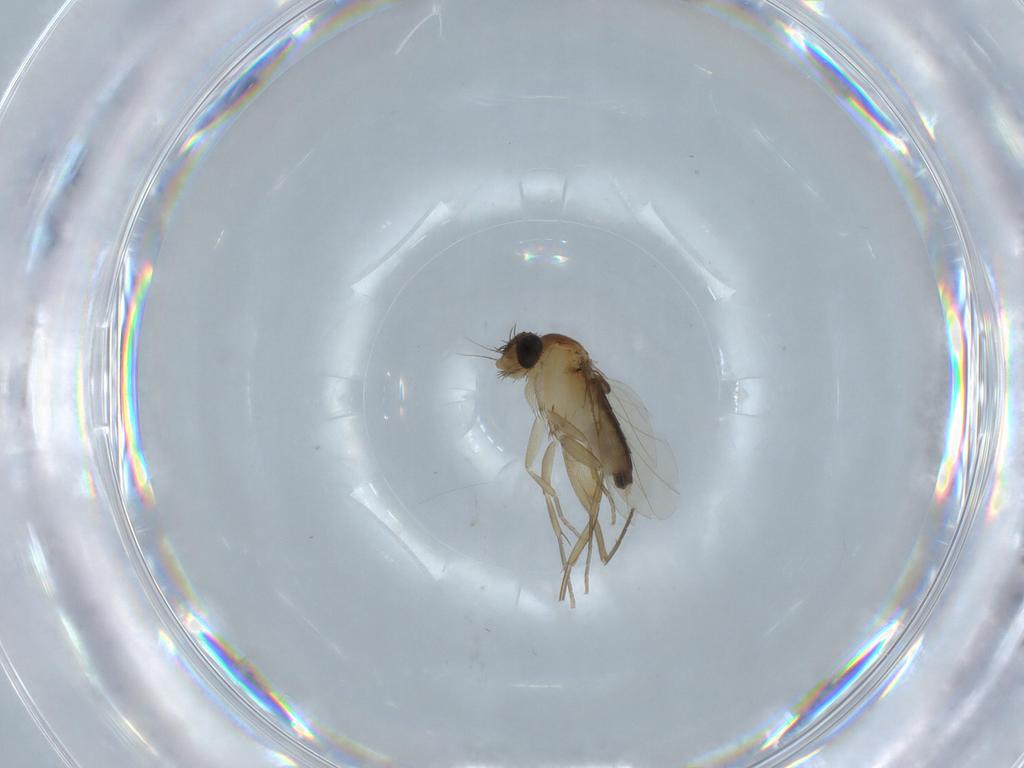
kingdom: Animalia
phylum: Arthropoda
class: Insecta
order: Diptera
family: Phoridae
